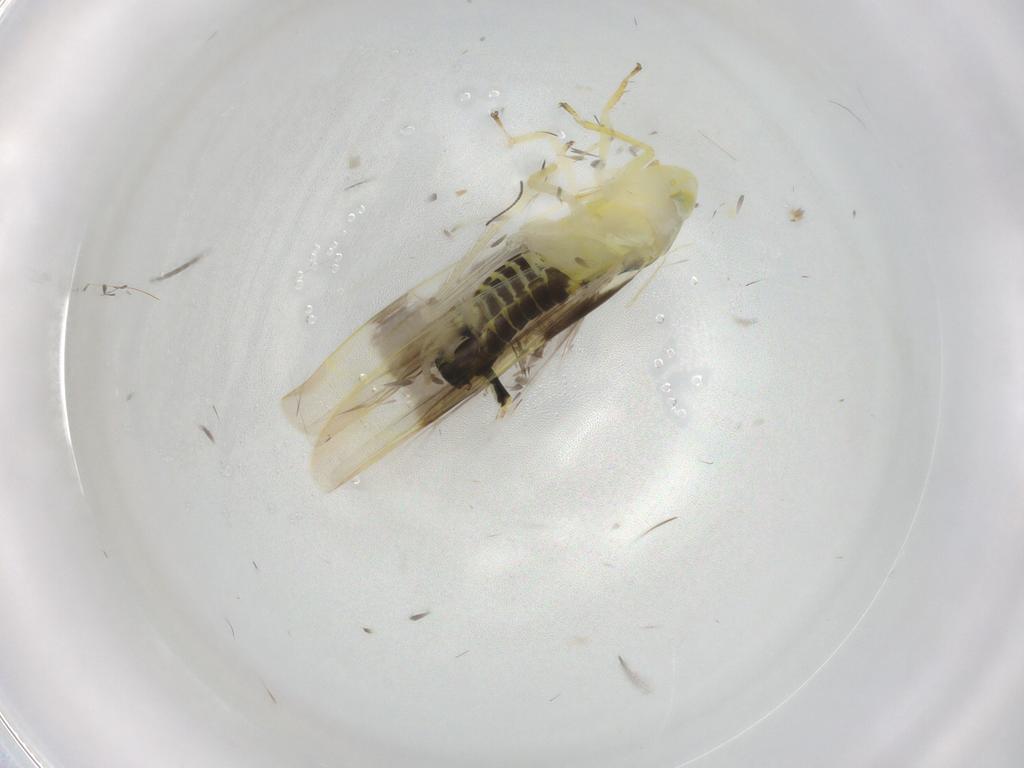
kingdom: Animalia
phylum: Arthropoda
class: Insecta
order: Hemiptera
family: Cicadellidae
